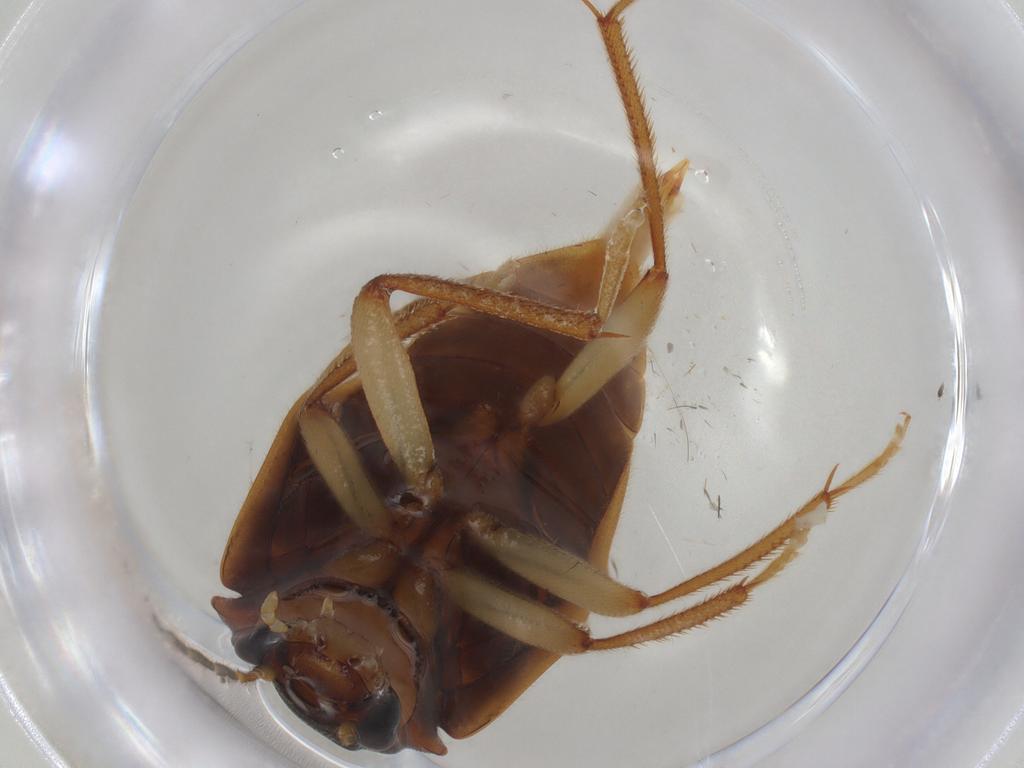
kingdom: Animalia
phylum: Arthropoda
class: Insecta
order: Coleoptera
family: Ptilodactylidae
